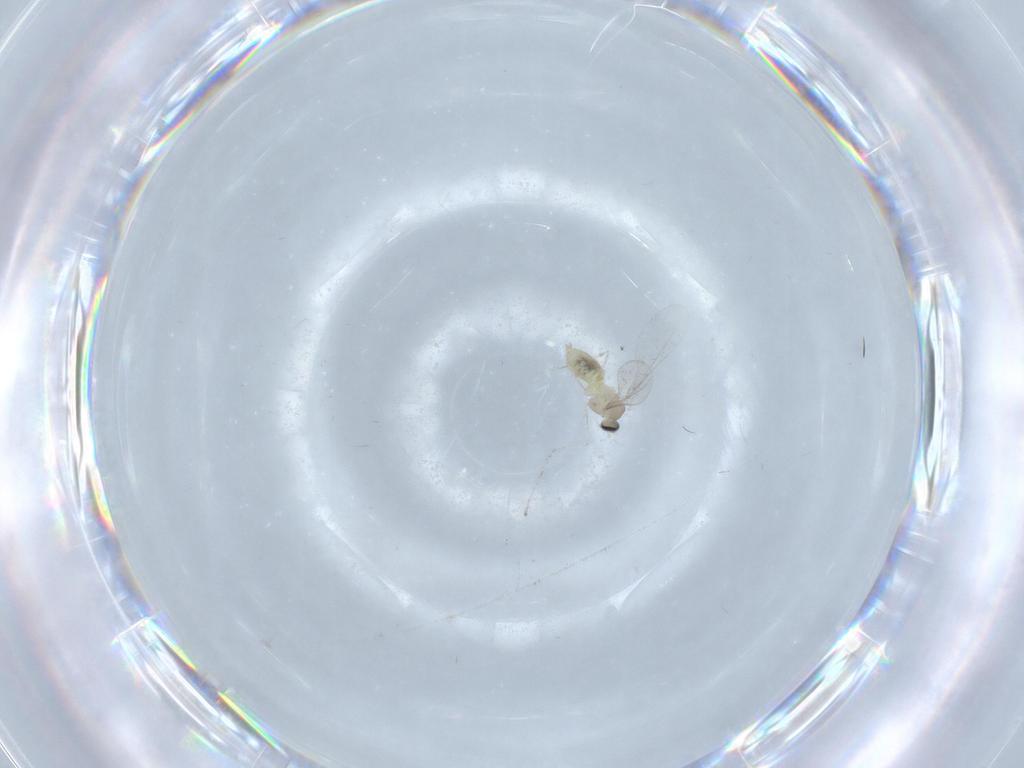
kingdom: Animalia
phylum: Arthropoda
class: Insecta
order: Diptera
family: Cecidomyiidae
